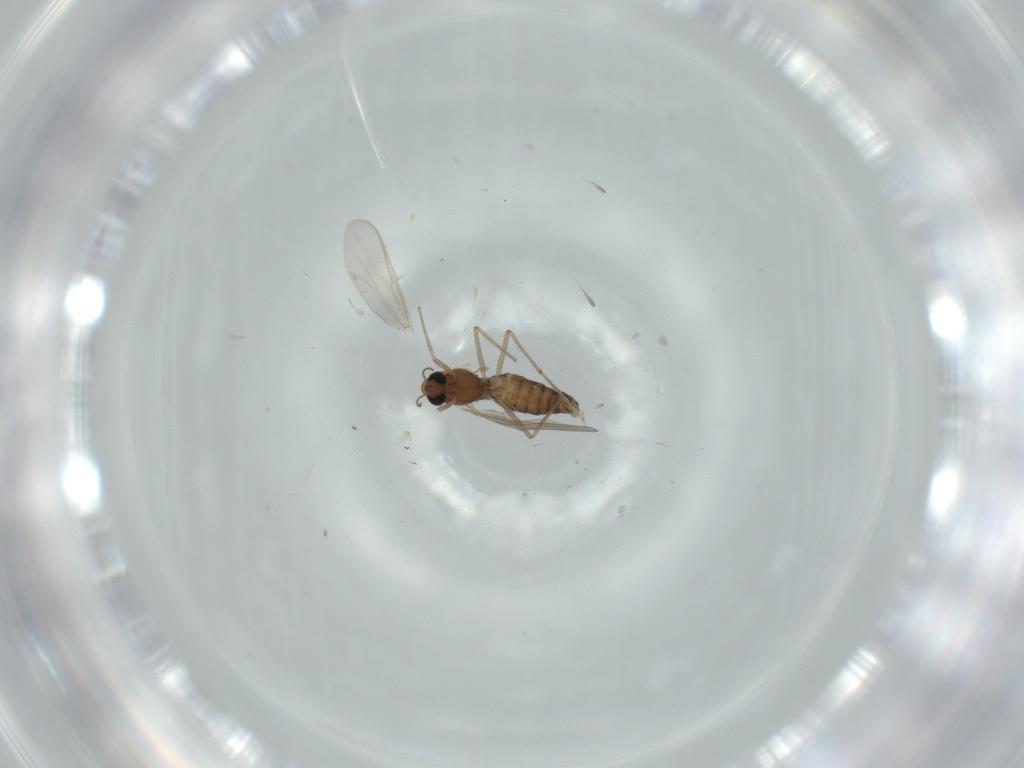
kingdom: Animalia
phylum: Arthropoda
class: Insecta
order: Diptera
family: Chironomidae
